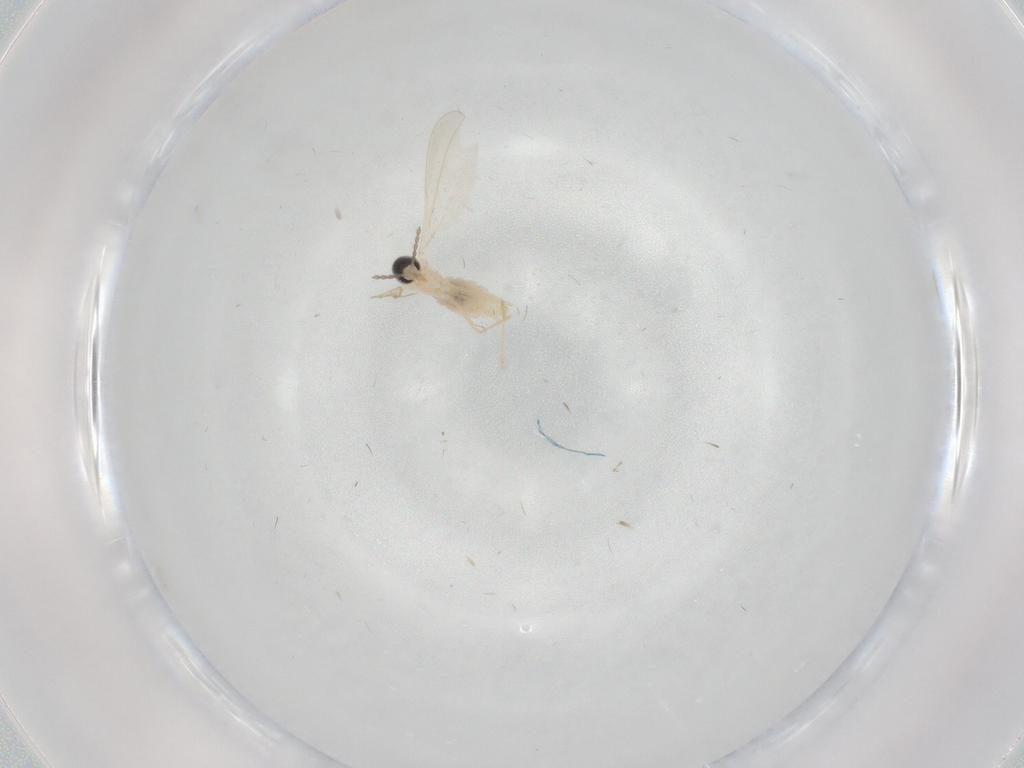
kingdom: Animalia
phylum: Arthropoda
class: Insecta
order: Diptera
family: Cecidomyiidae
